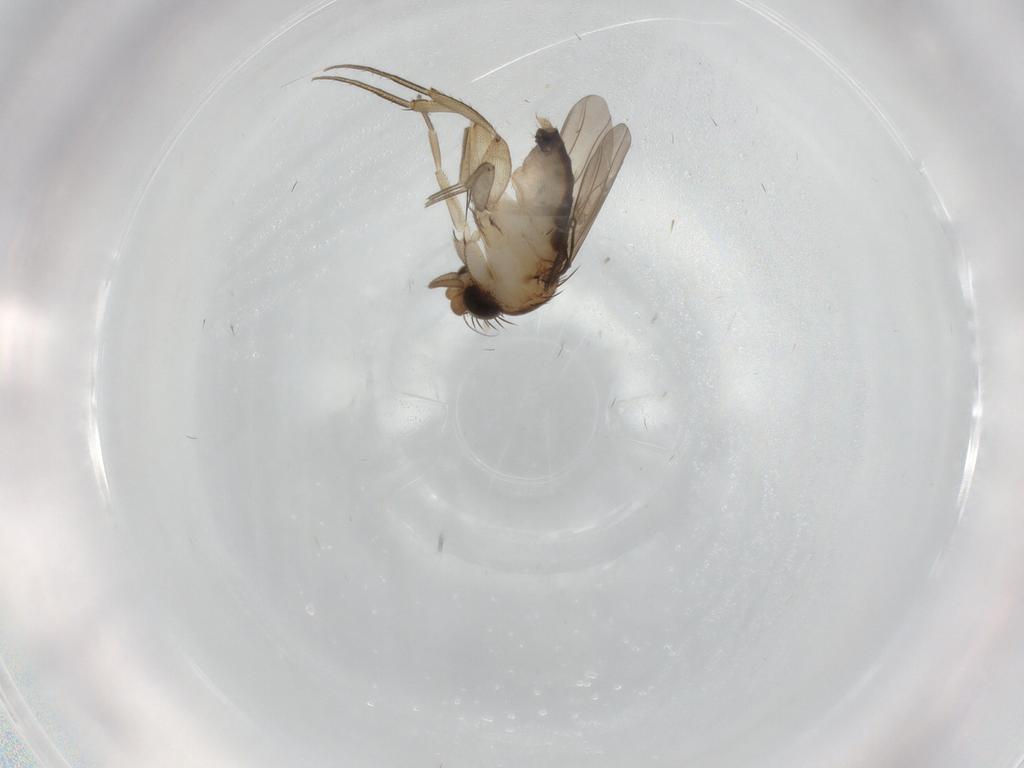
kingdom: Animalia
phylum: Arthropoda
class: Insecta
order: Diptera
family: Phoridae
